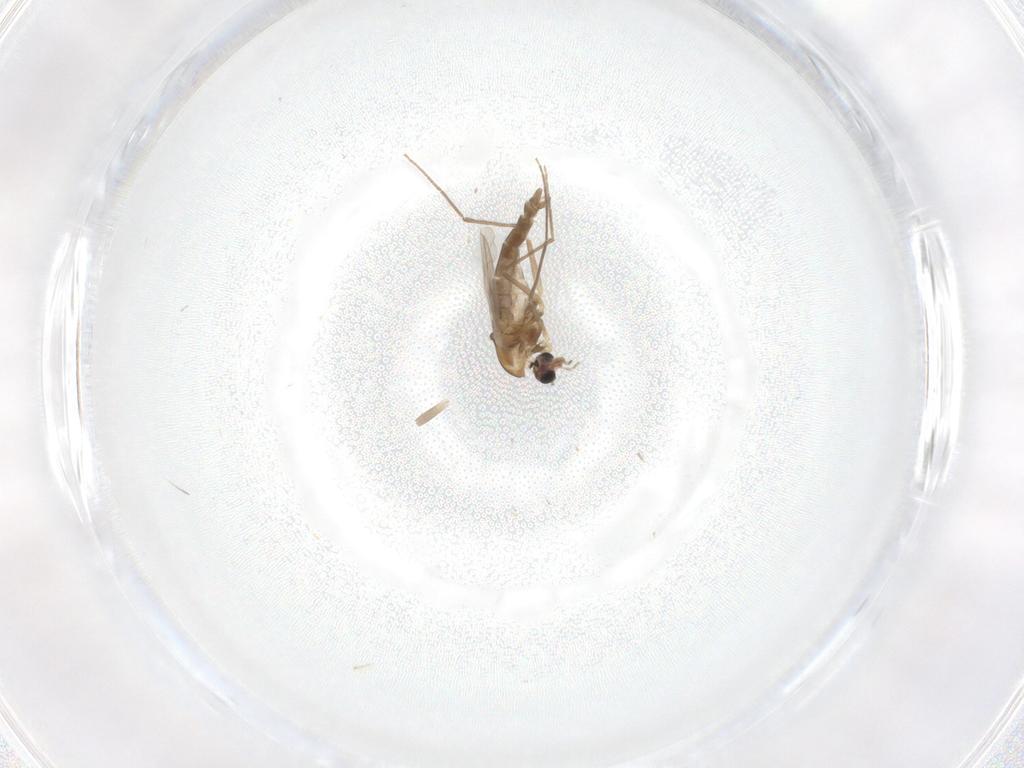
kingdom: Animalia
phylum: Arthropoda
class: Insecta
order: Diptera
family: Chironomidae
